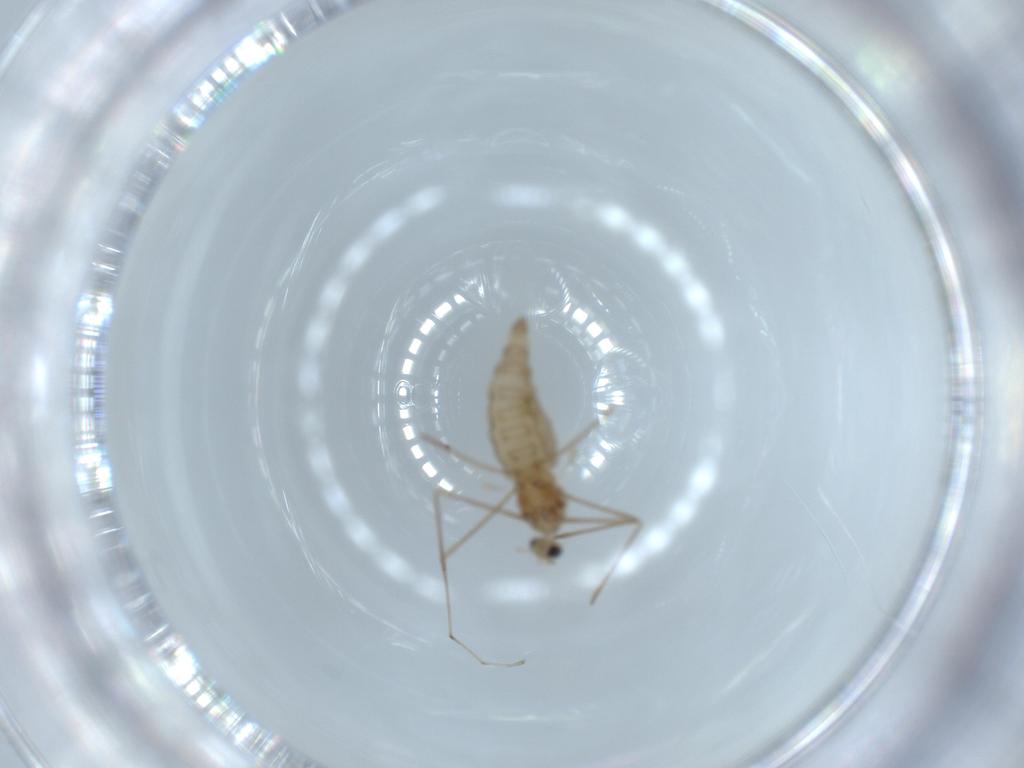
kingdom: Animalia
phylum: Arthropoda
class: Insecta
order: Diptera
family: Cecidomyiidae
